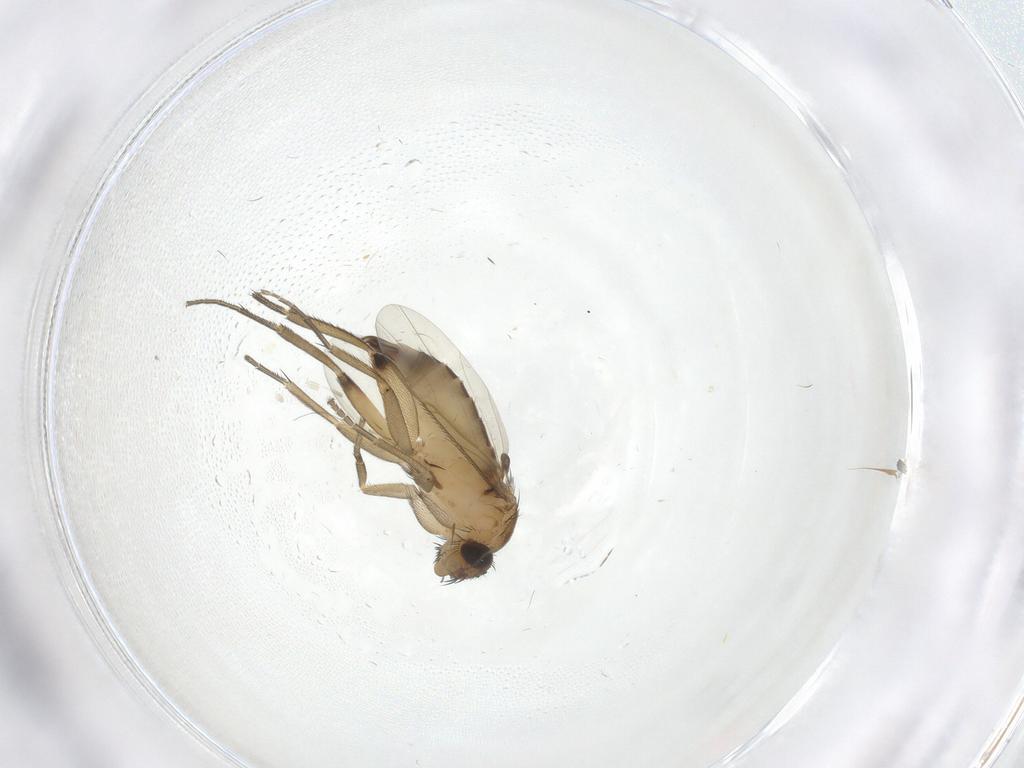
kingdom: Animalia
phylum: Arthropoda
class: Insecta
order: Diptera
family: Phoridae
